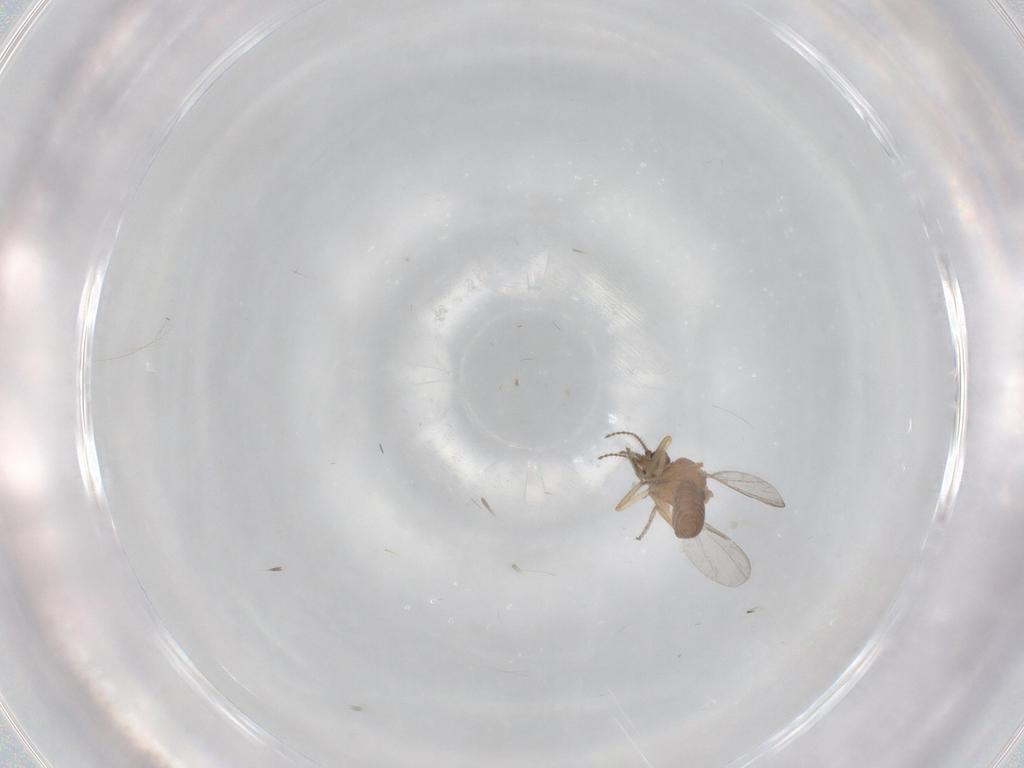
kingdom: Animalia
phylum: Arthropoda
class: Insecta
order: Diptera
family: Ceratopogonidae
